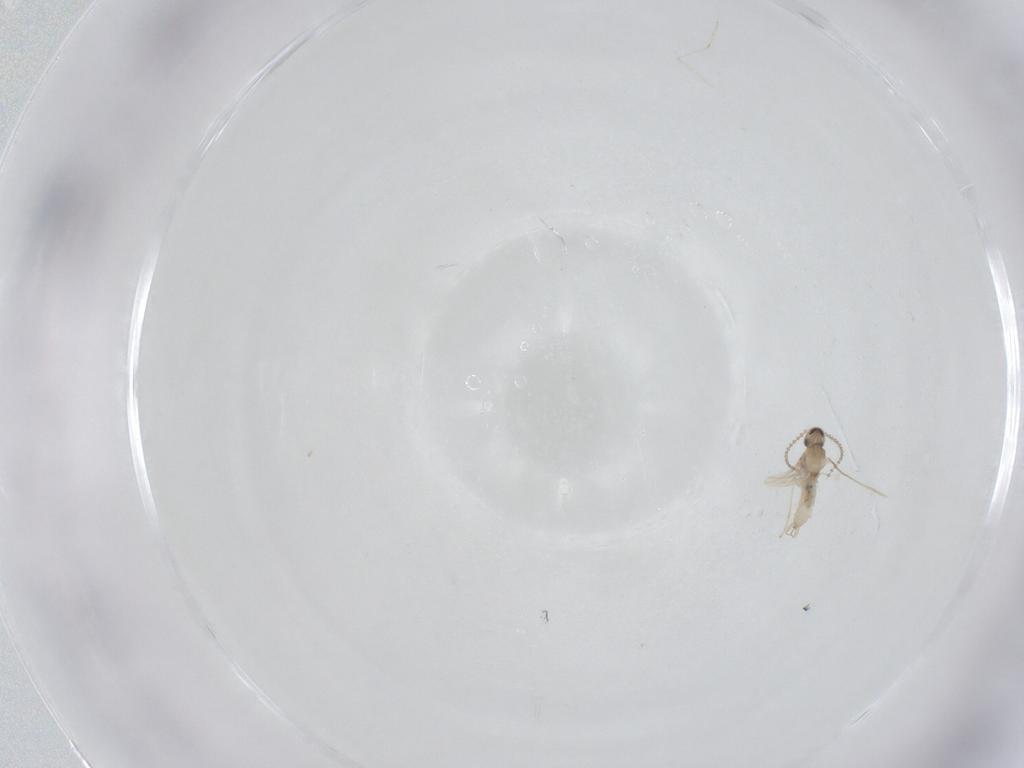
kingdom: Animalia
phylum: Arthropoda
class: Insecta
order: Diptera
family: Cecidomyiidae
